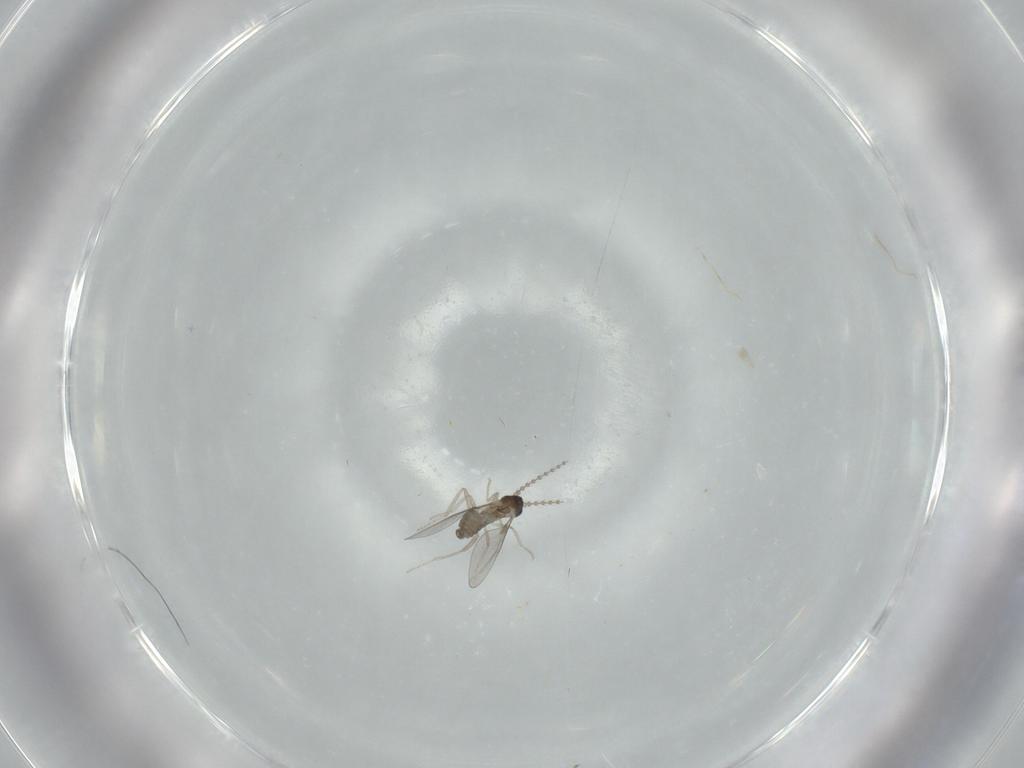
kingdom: Animalia
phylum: Arthropoda
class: Insecta
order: Diptera
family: Cecidomyiidae
